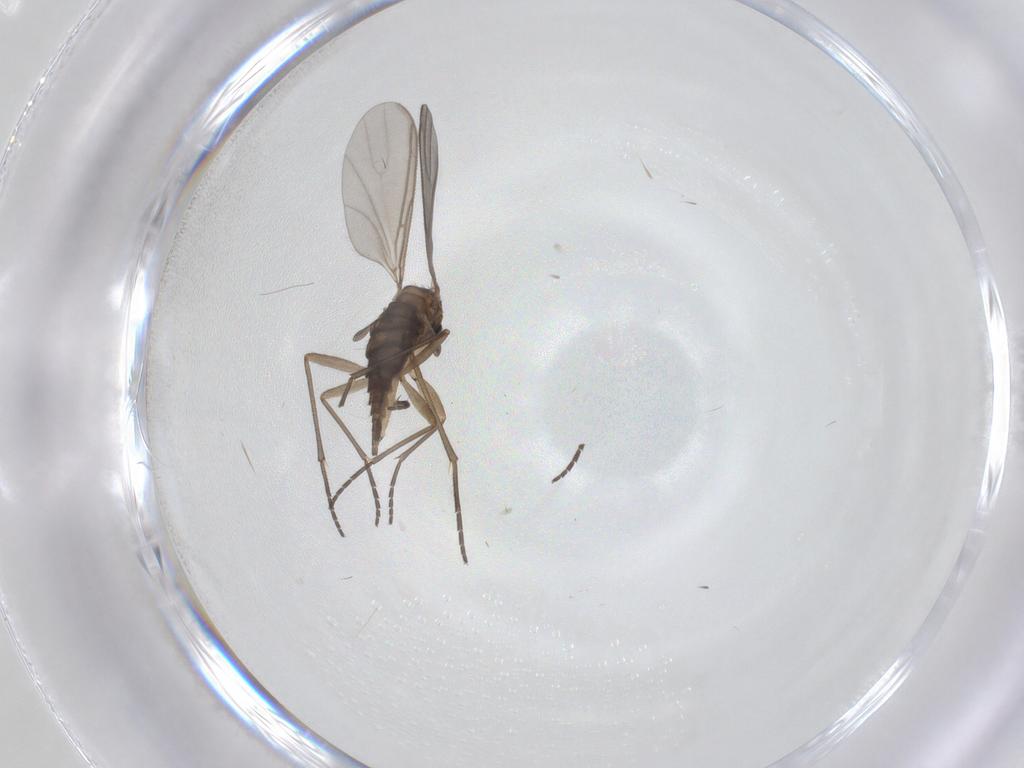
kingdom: Animalia
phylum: Arthropoda
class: Insecta
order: Diptera
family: Sciaridae
